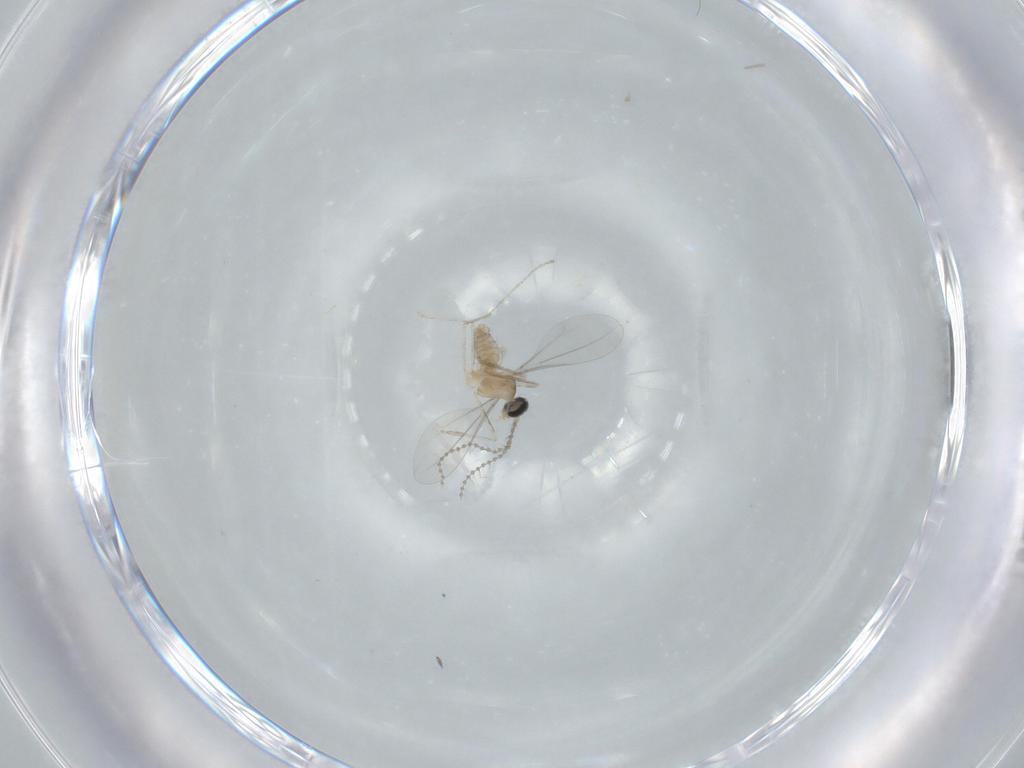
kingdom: Animalia
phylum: Arthropoda
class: Insecta
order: Diptera
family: Cecidomyiidae
